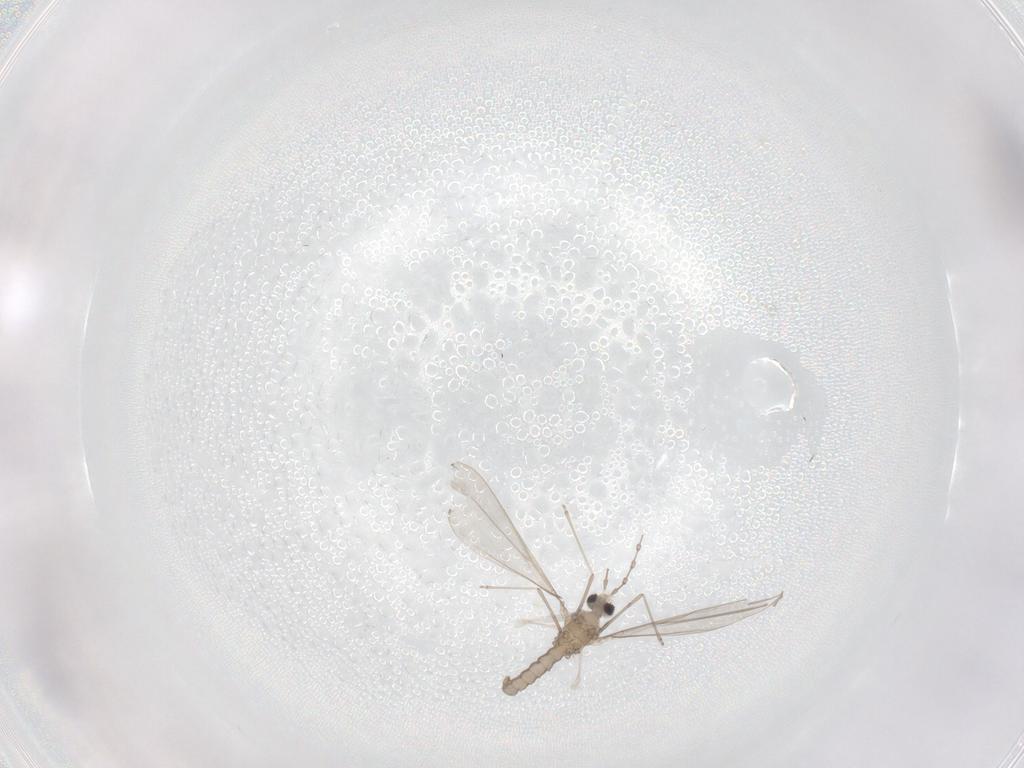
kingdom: Animalia
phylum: Arthropoda
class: Insecta
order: Diptera
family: Cecidomyiidae
